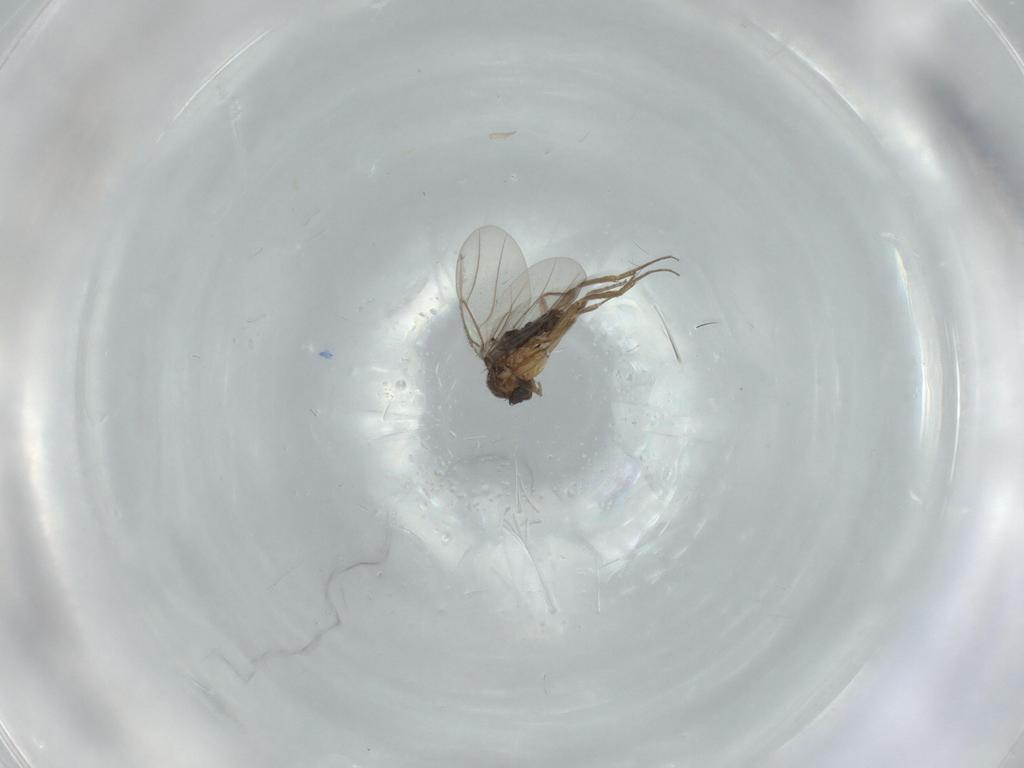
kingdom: Animalia
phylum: Arthropoda
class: Insecta
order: Diptera
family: Phoridae
